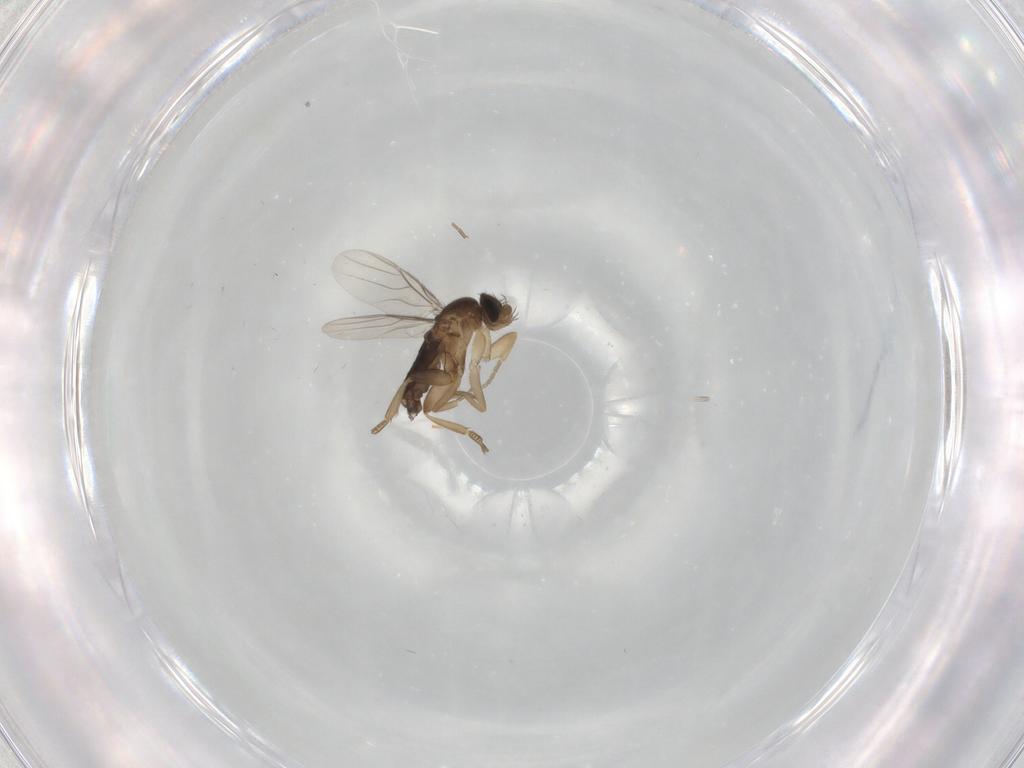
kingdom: Animalia
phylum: Arthropoda
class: Insecta
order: Diptera
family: Phoridae
